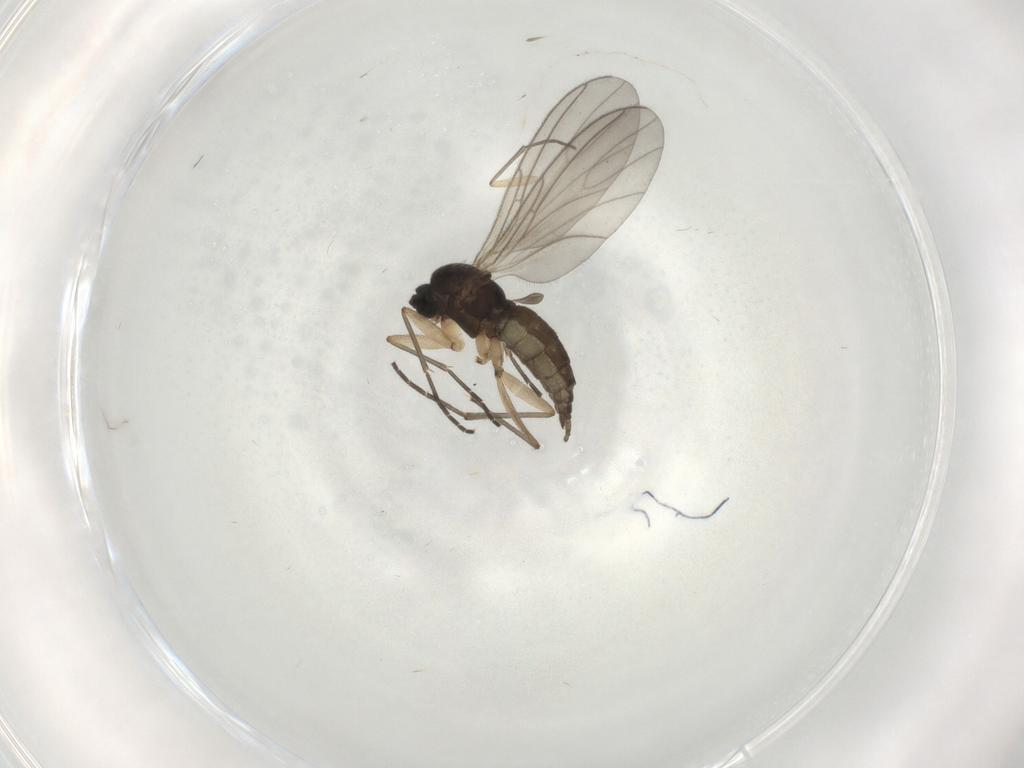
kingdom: Animalia
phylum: Arthropoda
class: Insecta
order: Diptera
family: Sciaridae
